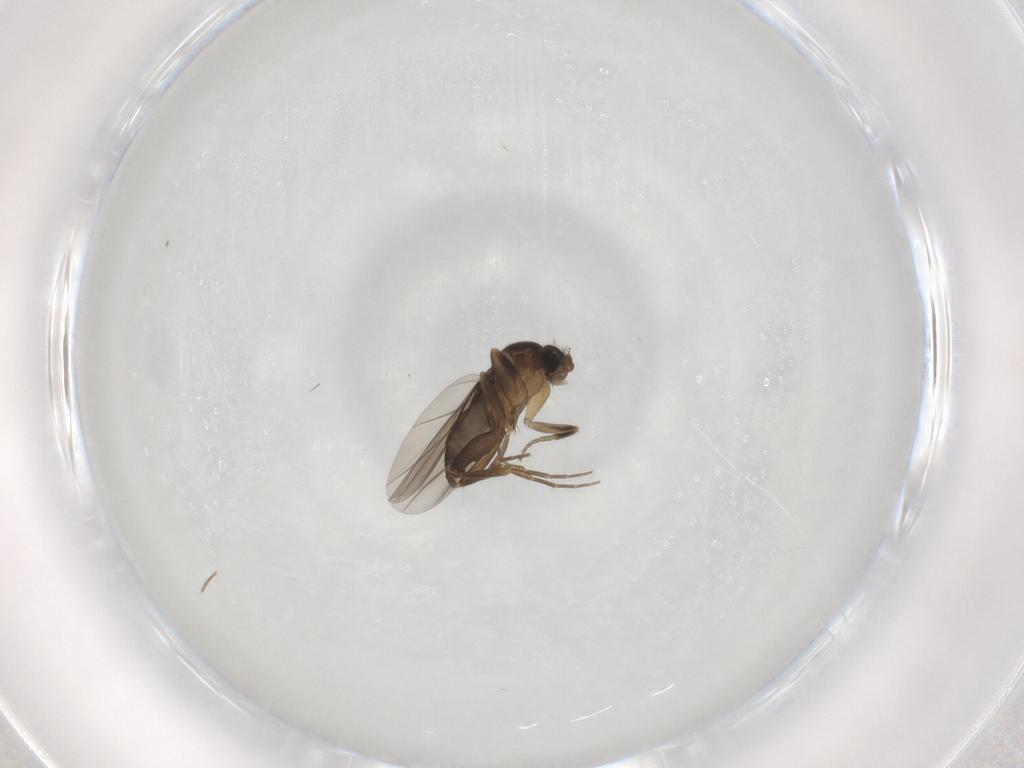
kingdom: Animalia
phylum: Arthropoda
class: Insecta
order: Diptera
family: Phoridae
